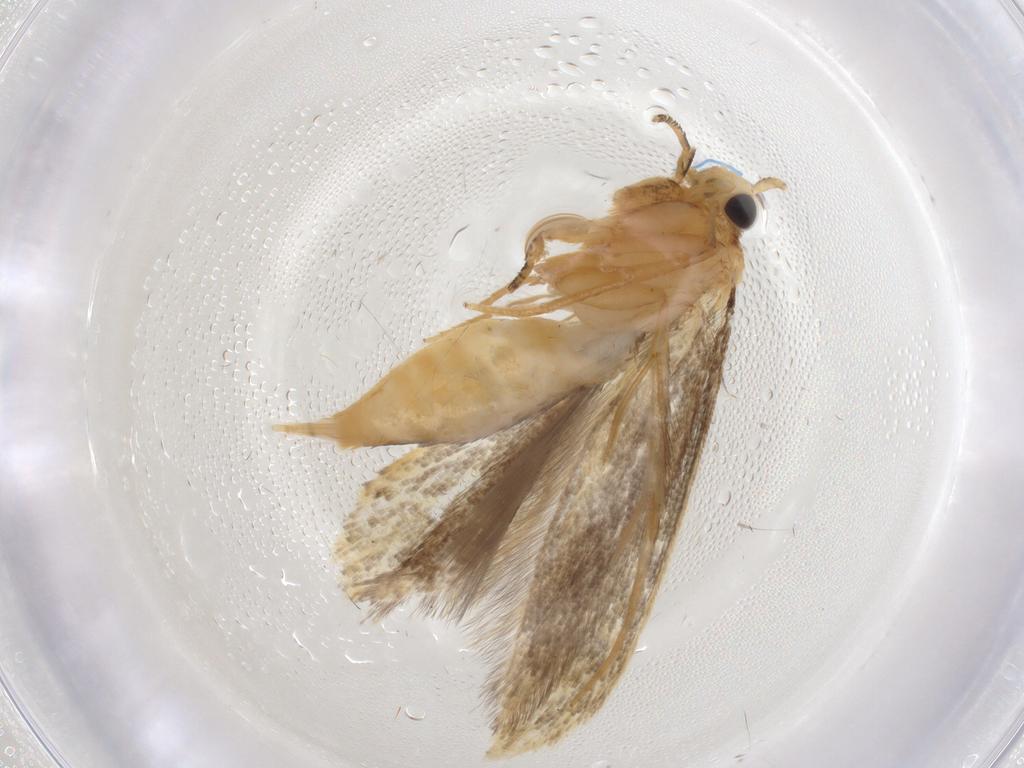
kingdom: Animalia
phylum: Arthropoda
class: Insecta
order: Lepidoptera
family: Tineidae
